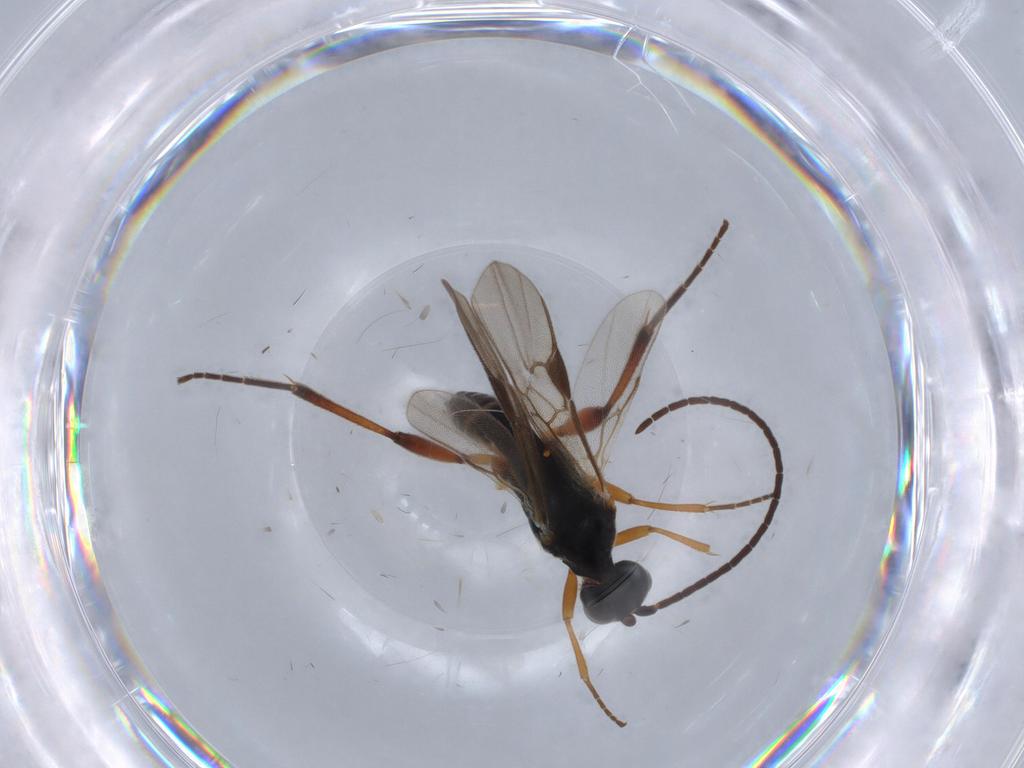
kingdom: Animalia
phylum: Arthropoda
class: Insecta
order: Hymenoptera
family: Braconidae
